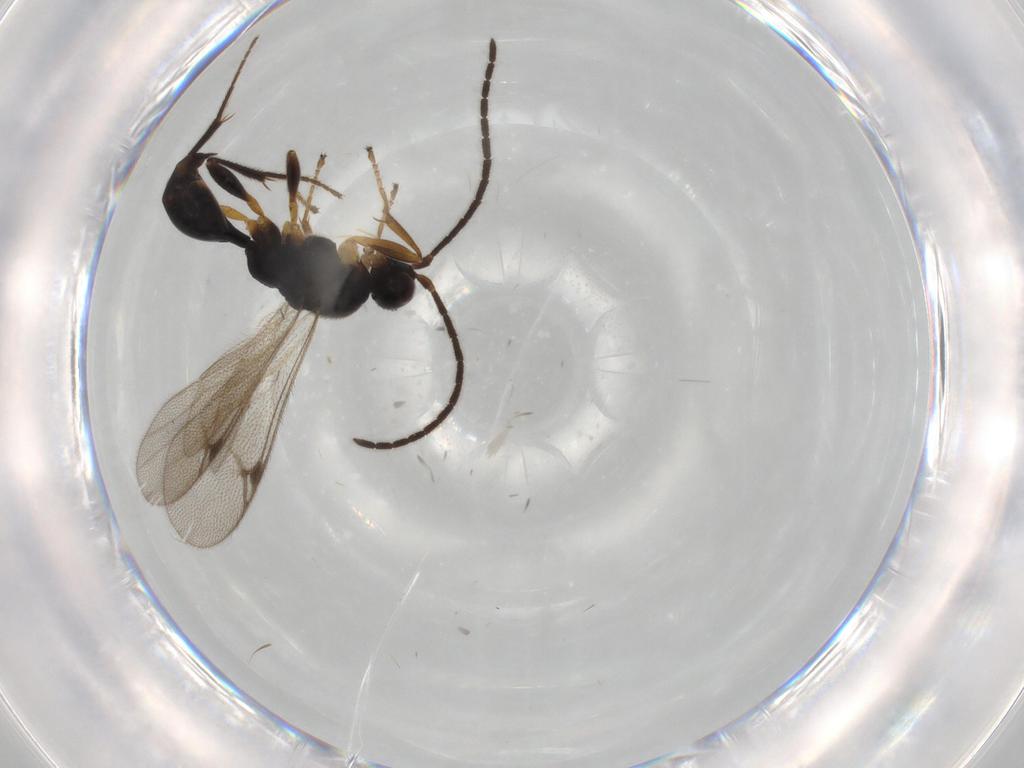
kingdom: Animalia
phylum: Arthropoda
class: Insecta
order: Hymenoptera
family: Proctotrupidae
